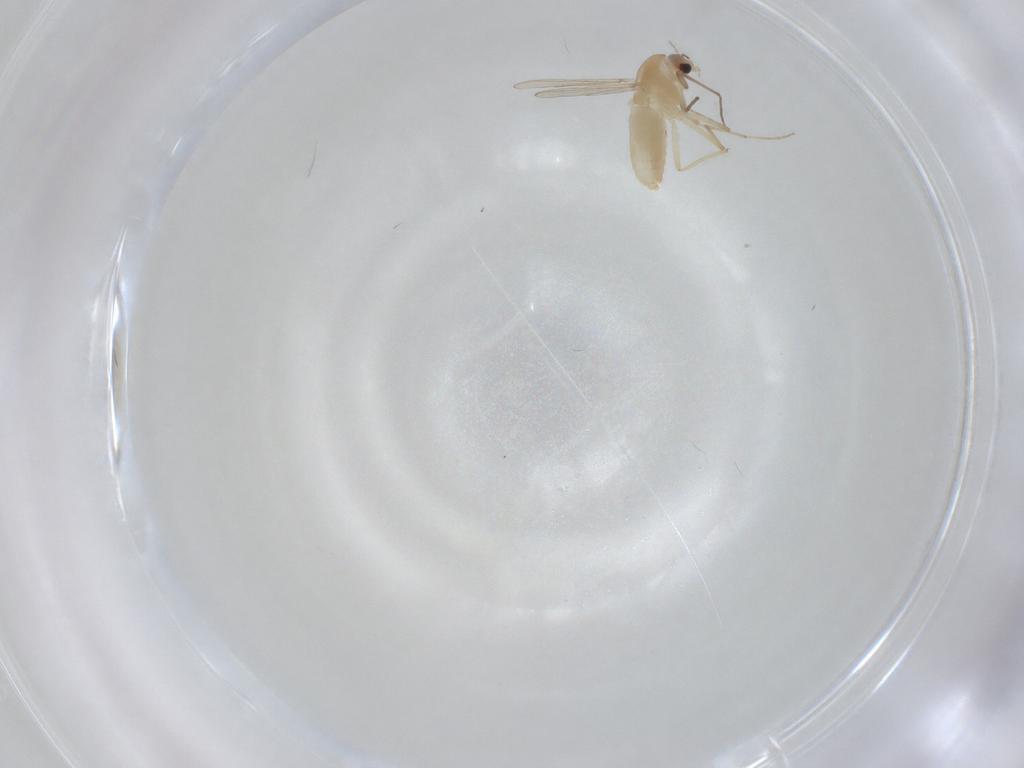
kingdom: Animalia
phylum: Arthropoda
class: Insecta
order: Diptera
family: Chironomidae
